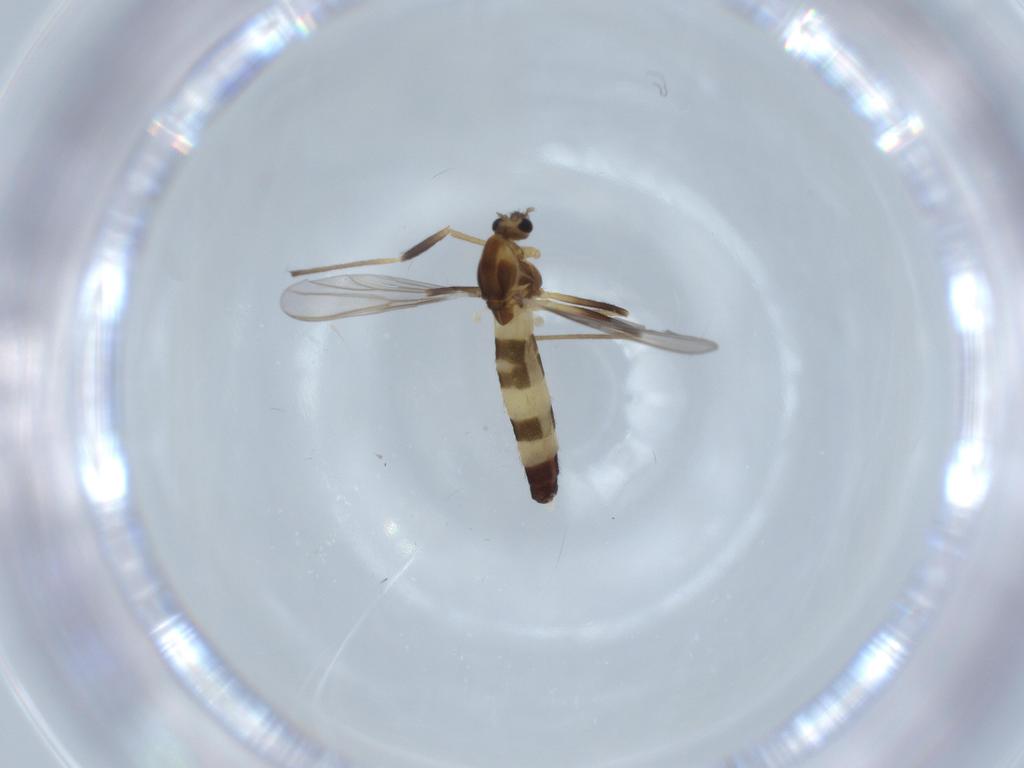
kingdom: Animalia
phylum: Arthropoda
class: Insecta
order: Diptera
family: Chironomidae
